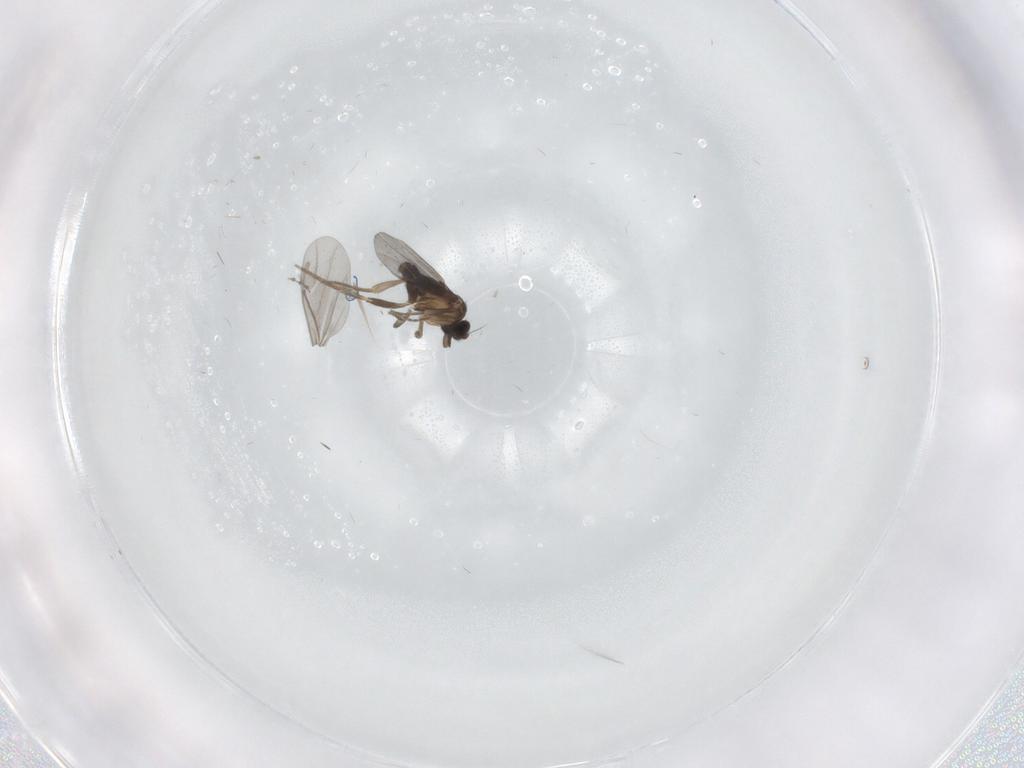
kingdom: Animalia
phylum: Arthropoda
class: Insecta
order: Diptera
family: Cecidomyiidae
